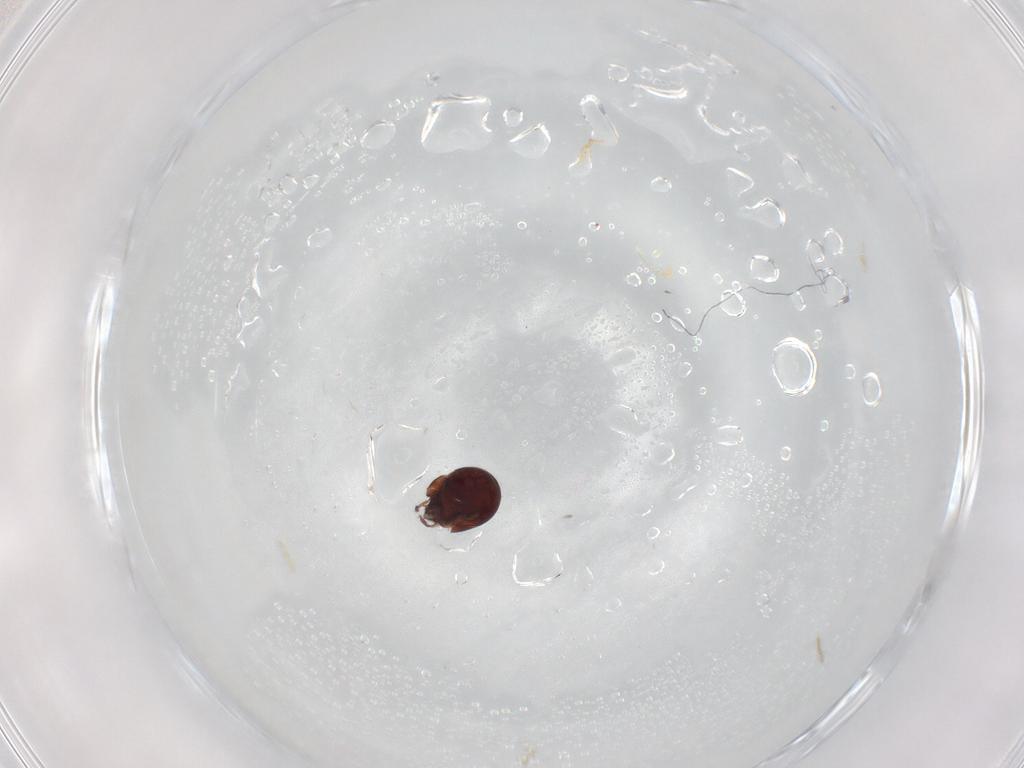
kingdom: Animalia
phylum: Arthropoda
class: Arachnida
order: Sarcoptiformes
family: Humerobatidae
